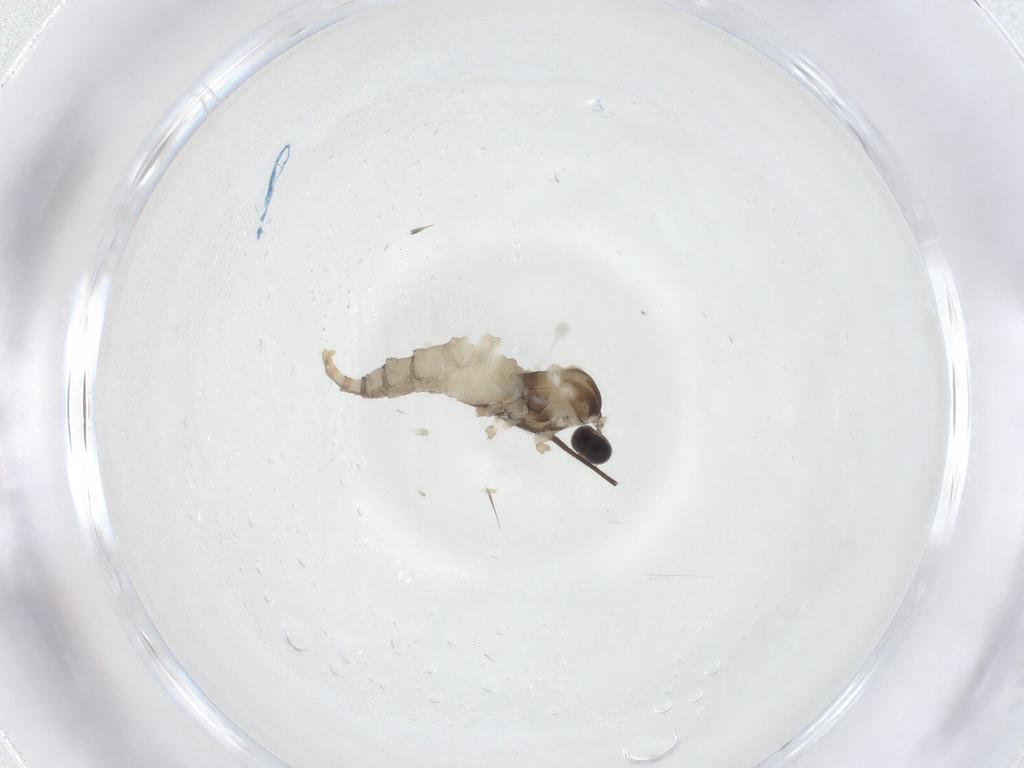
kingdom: Animalia
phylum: Arthropoda
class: Insecta
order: Diptera
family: Cecidomyiidae
